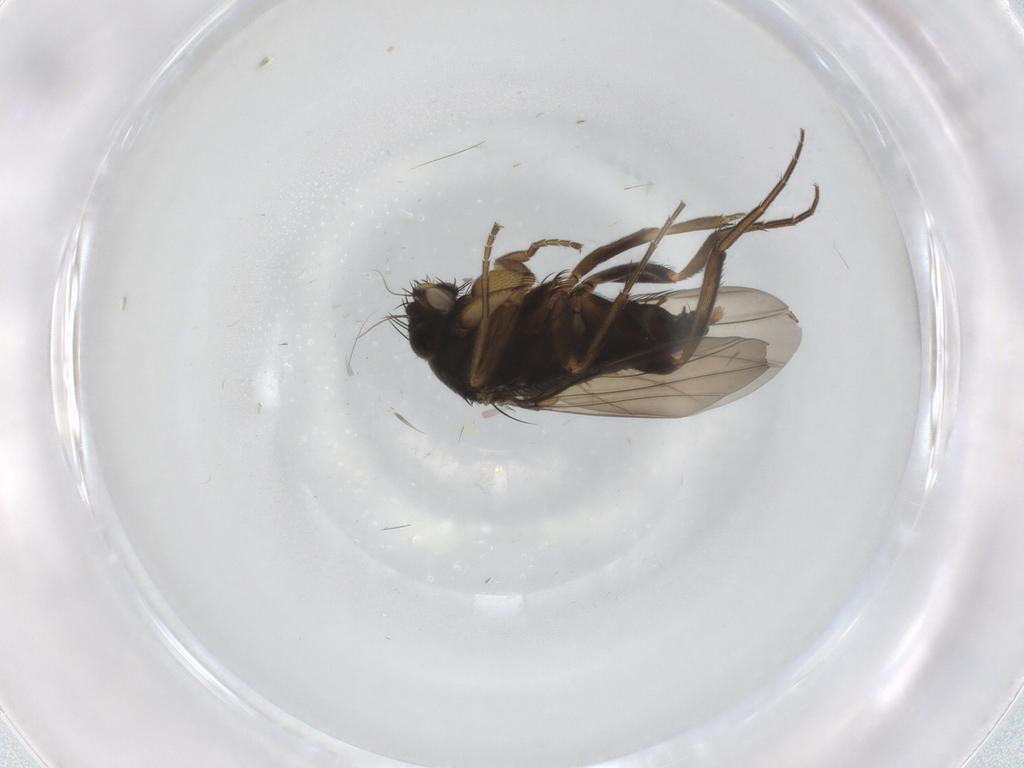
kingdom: Animalia
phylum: Arthropoda
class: Insecta
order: Diptera
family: Phoridae
